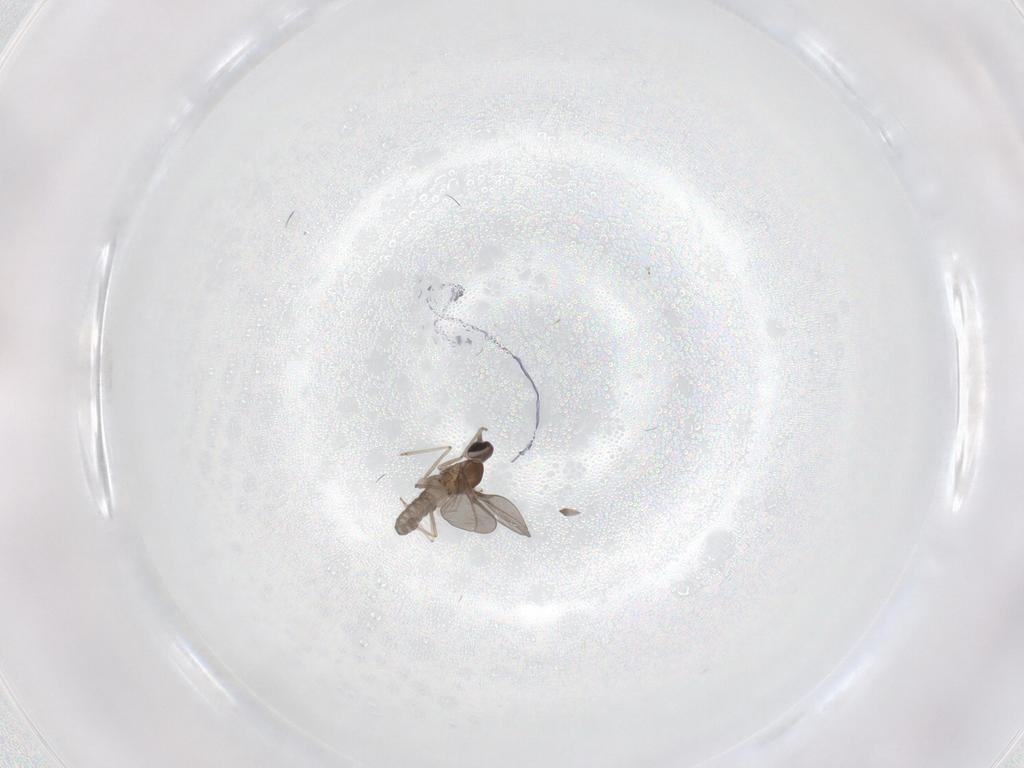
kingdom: Animalia
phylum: Arthropoda
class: Insecta
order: Diptera
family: Cecidomyiidae
